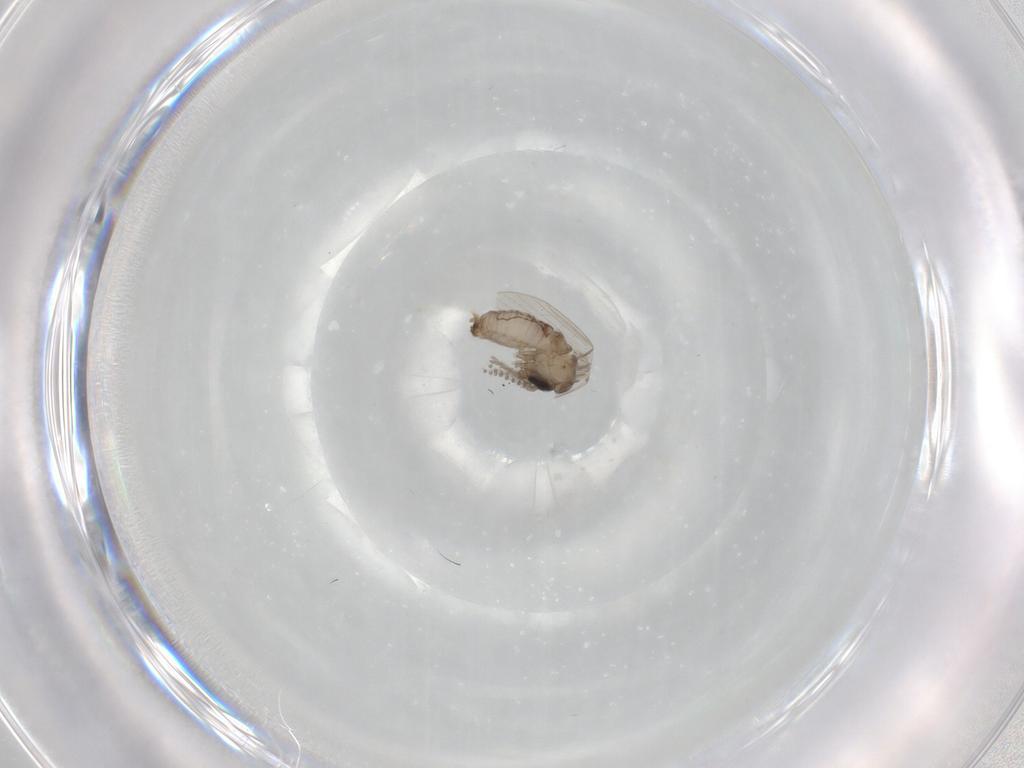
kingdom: Animalia
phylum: Arthropoda
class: Insecta
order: Diptera
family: Psychodidae
